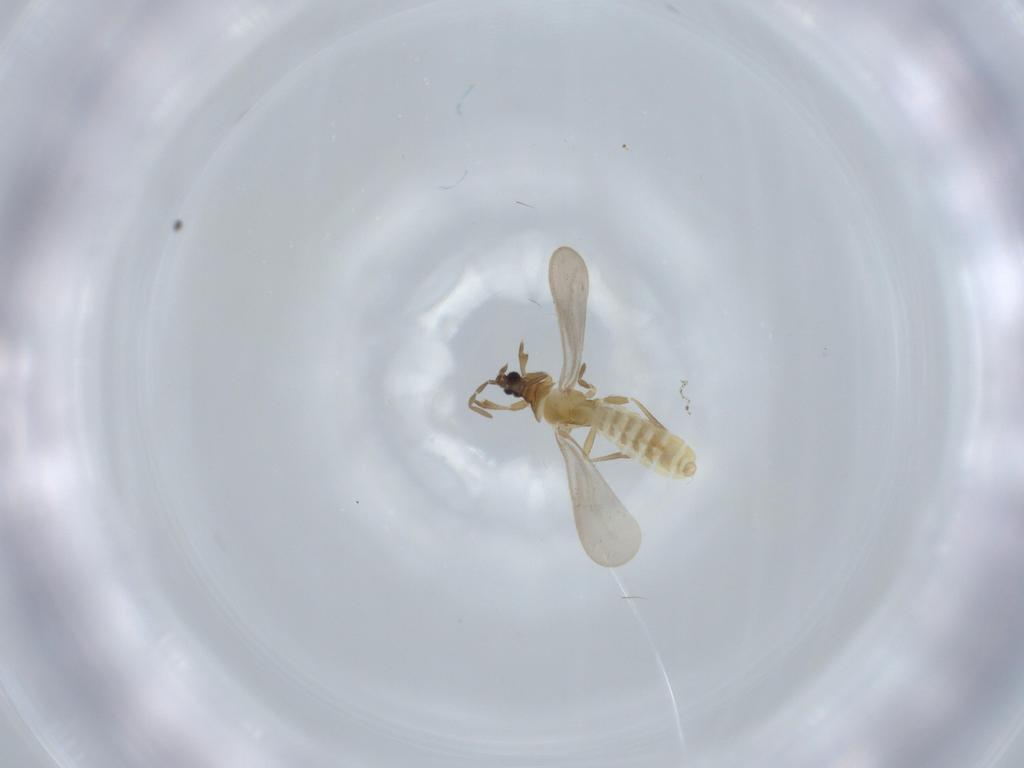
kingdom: Animalia
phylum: Arthropoda
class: Insecta
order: Hemiptera
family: Enicocephalidae
